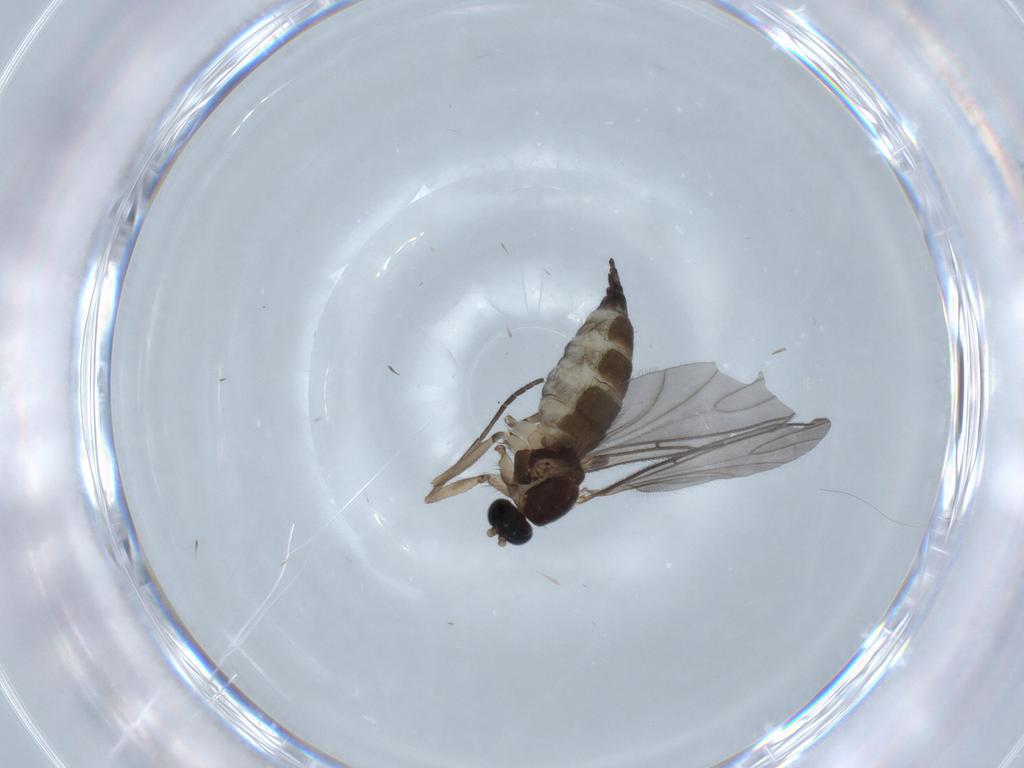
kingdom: Animalia
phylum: Arthropoda
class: Insecta
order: Diptera
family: Sciaridae
